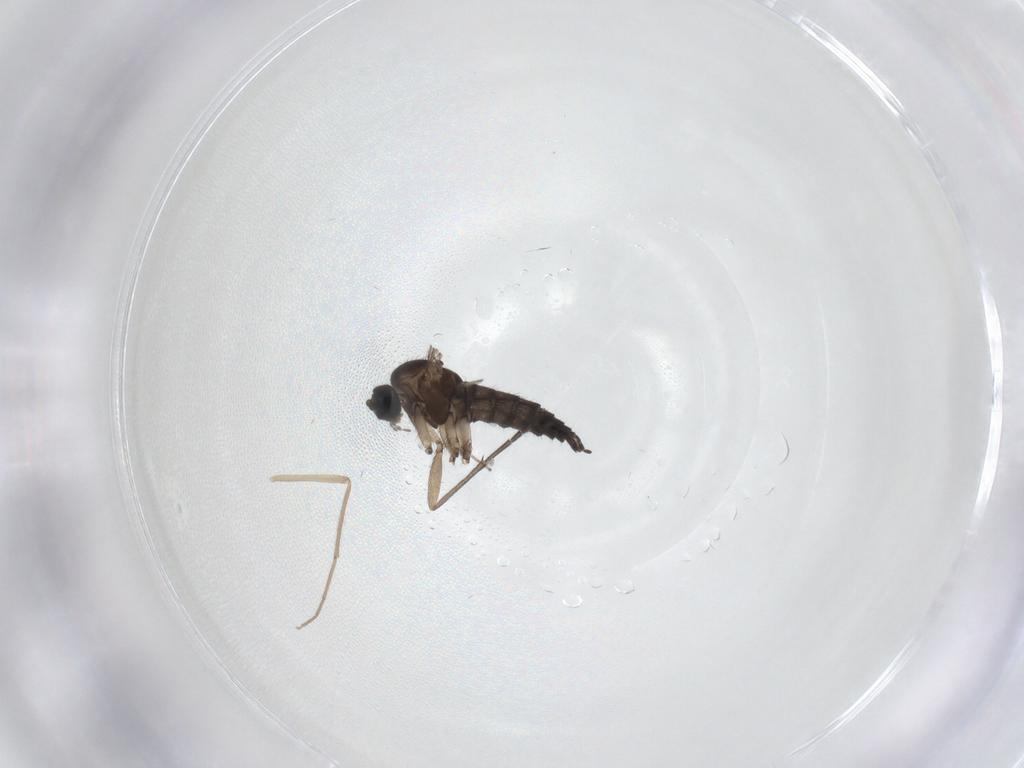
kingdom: Animalia
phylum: Arthropoda
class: Insecta
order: Diptera
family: Sciaridae
